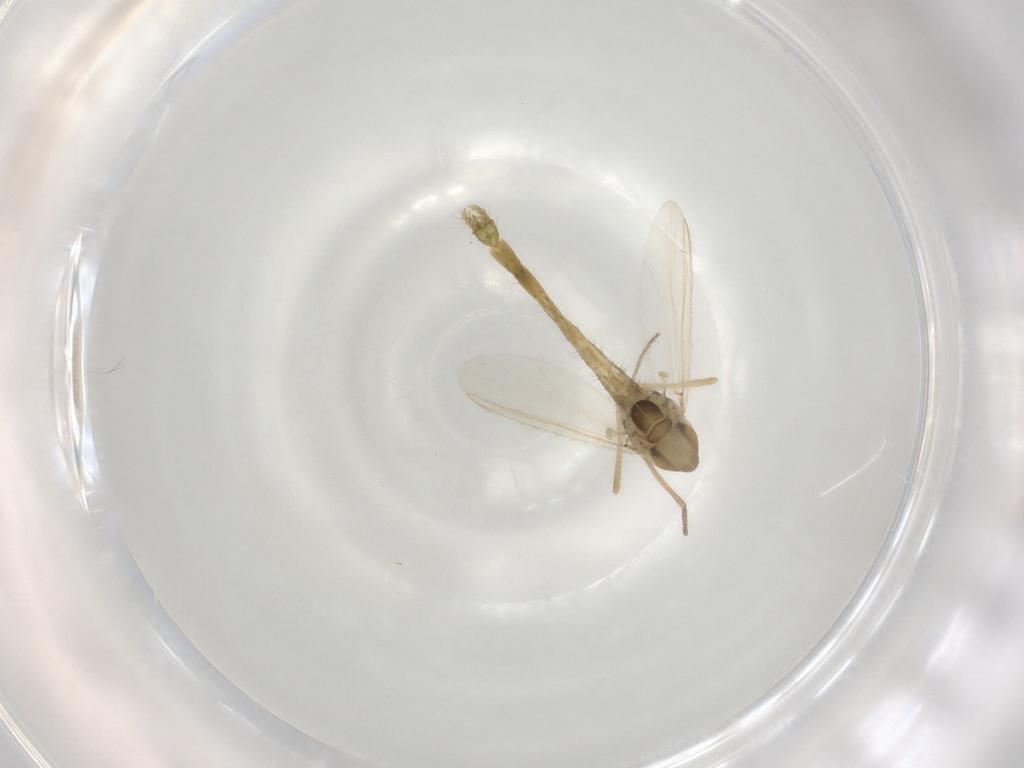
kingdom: Animalia
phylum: Arthropoda
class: Insecta
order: Diptera
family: Chironomidae
